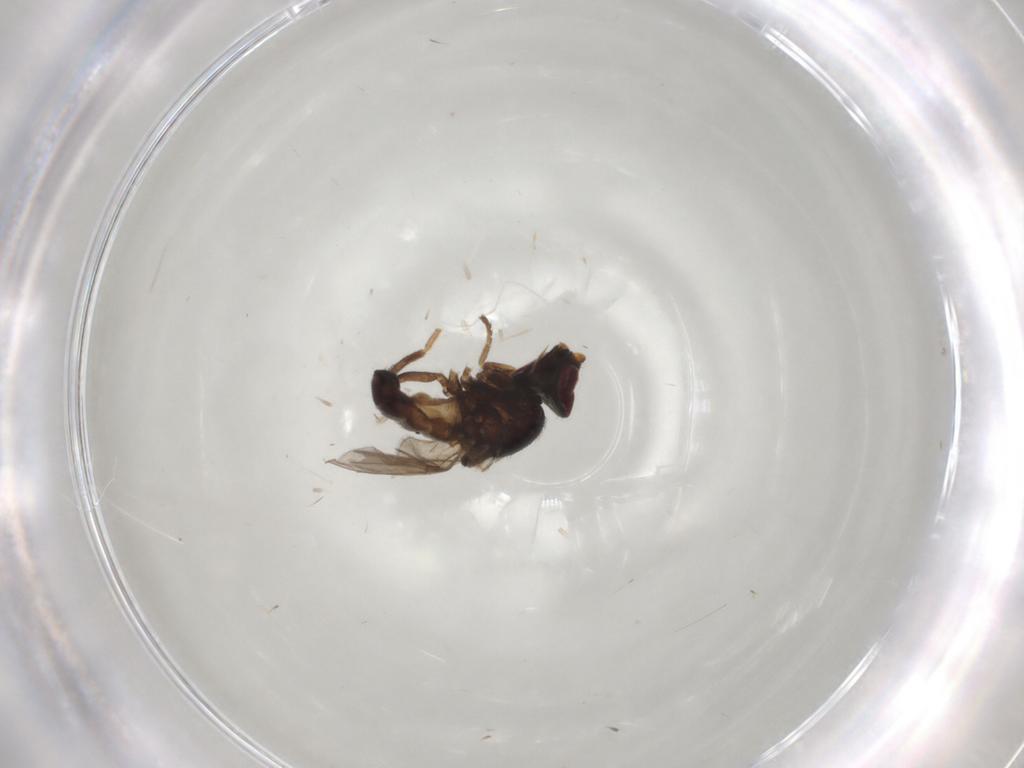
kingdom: Animalia
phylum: Arthropoda
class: Insecta
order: Diptera
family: Chloropidae
